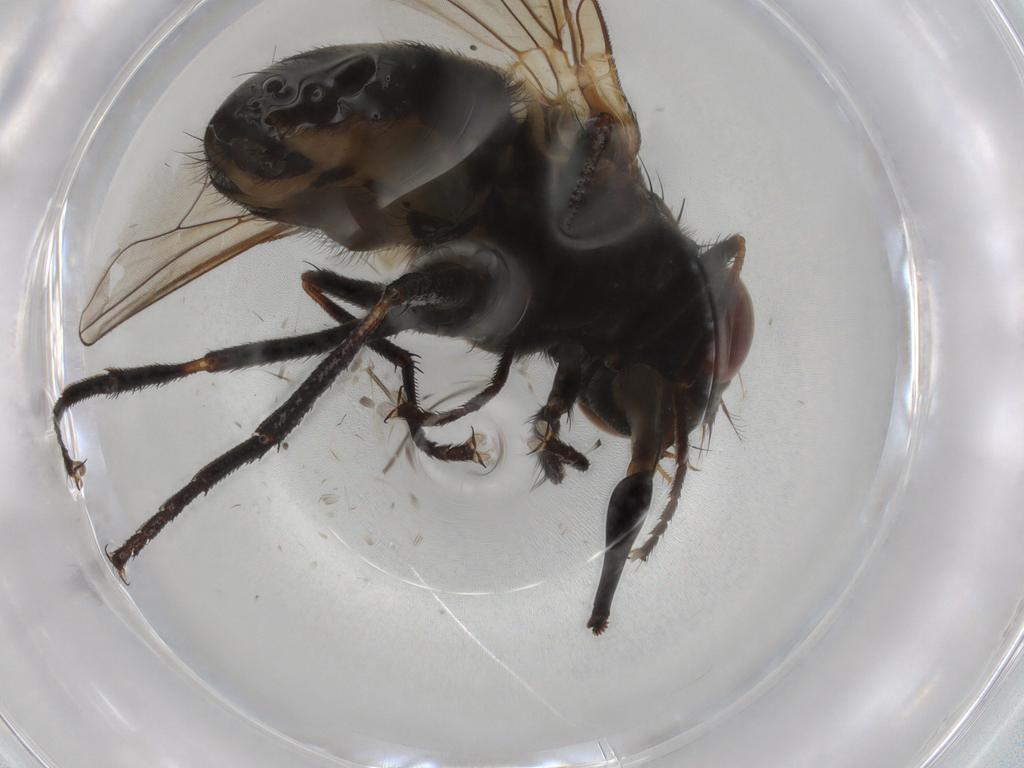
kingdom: Animalia
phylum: Arthropoda
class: Insecta
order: Diptera
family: Muscidae
